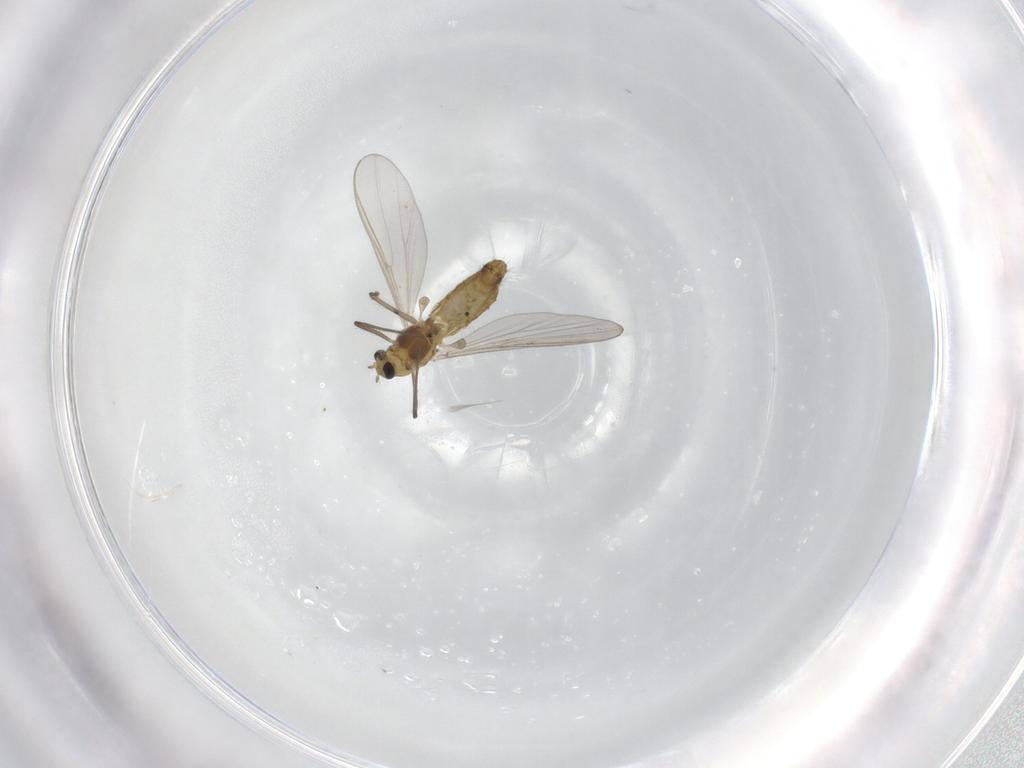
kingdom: Animalia
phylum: Arthropoda
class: Insecta
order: Diptera
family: Chironomidae
